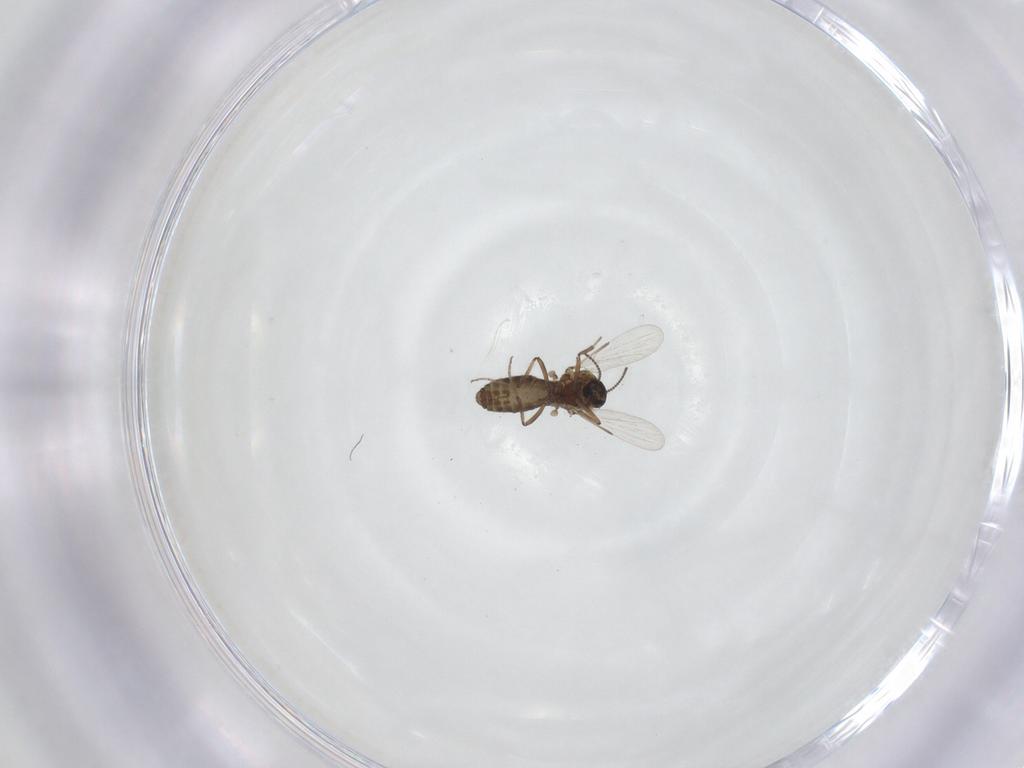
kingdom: Animalia
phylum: Arthropoda
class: Insecta
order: Diptera
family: Ceratopogonidae
